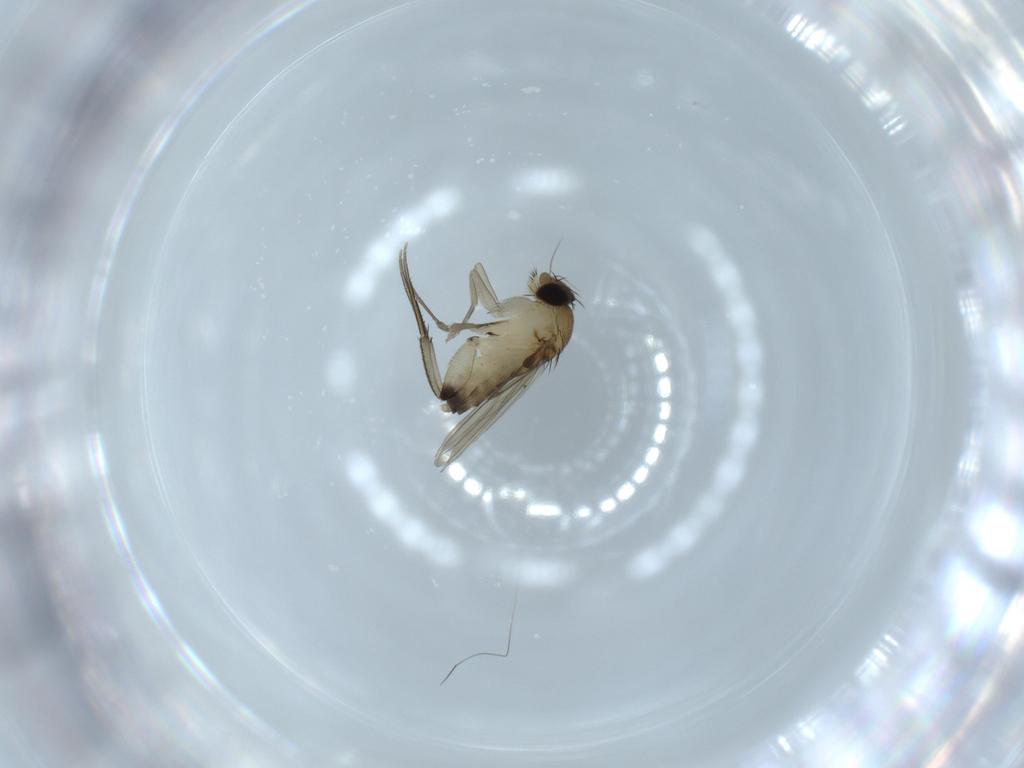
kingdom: Animalia
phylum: Arthropoda
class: Insecta
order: Diptera
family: Phoridae
